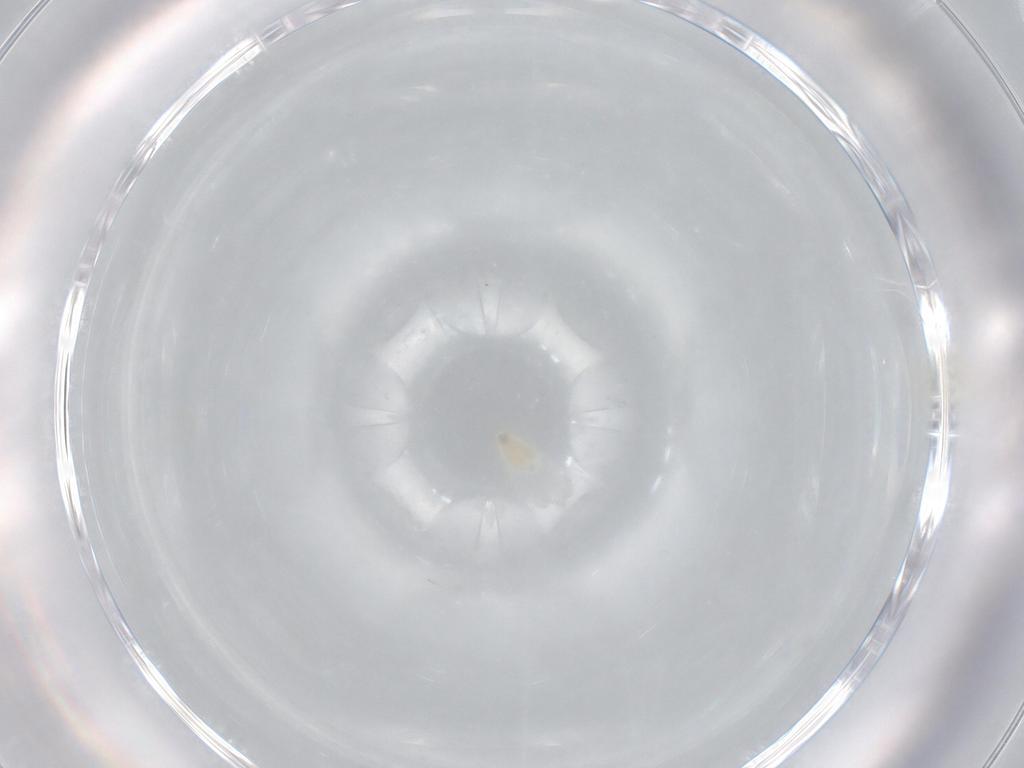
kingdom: Animalia
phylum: Arthropoda
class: Insecta
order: Hemiptera
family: Aleyrodidae
